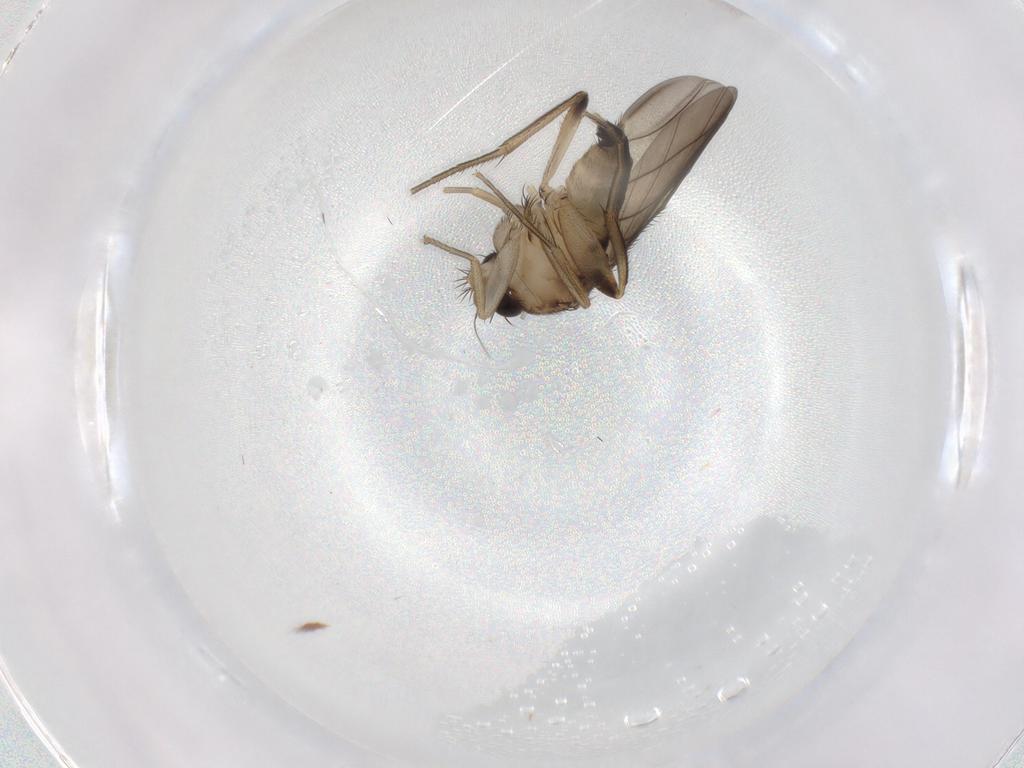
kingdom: Animalia
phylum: Arthropoda
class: Insecta
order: Diptera
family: Phoridae
